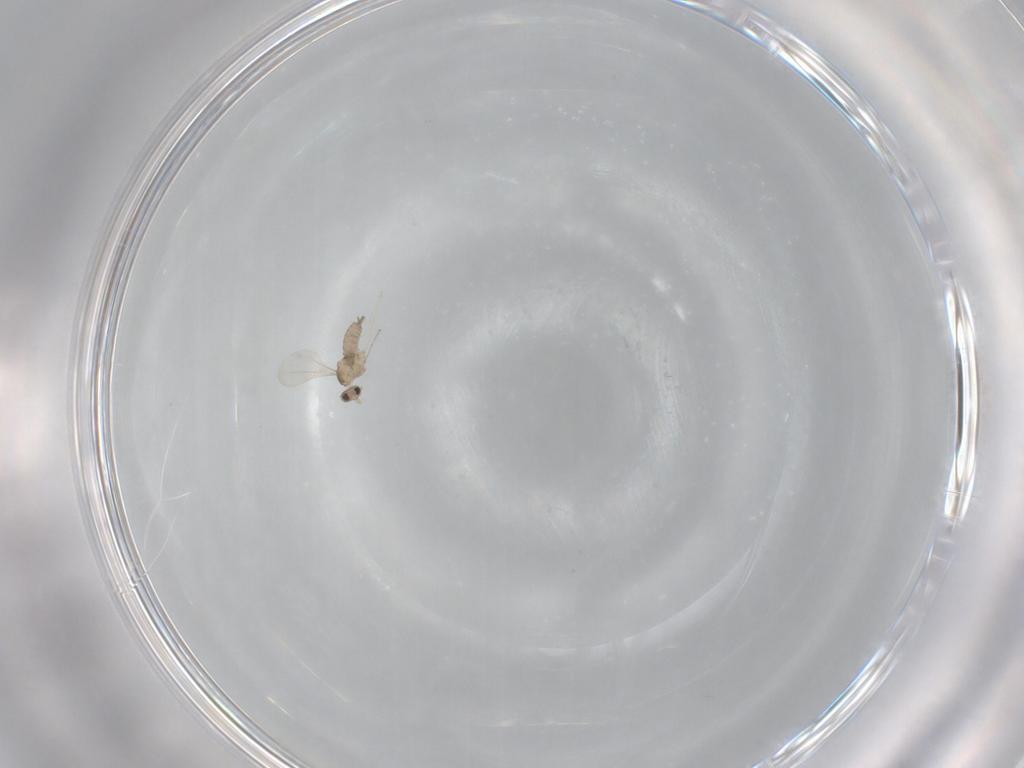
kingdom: Animalia
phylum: Arthropoda
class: Insecta
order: Diptera
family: Cecidomyiidae
